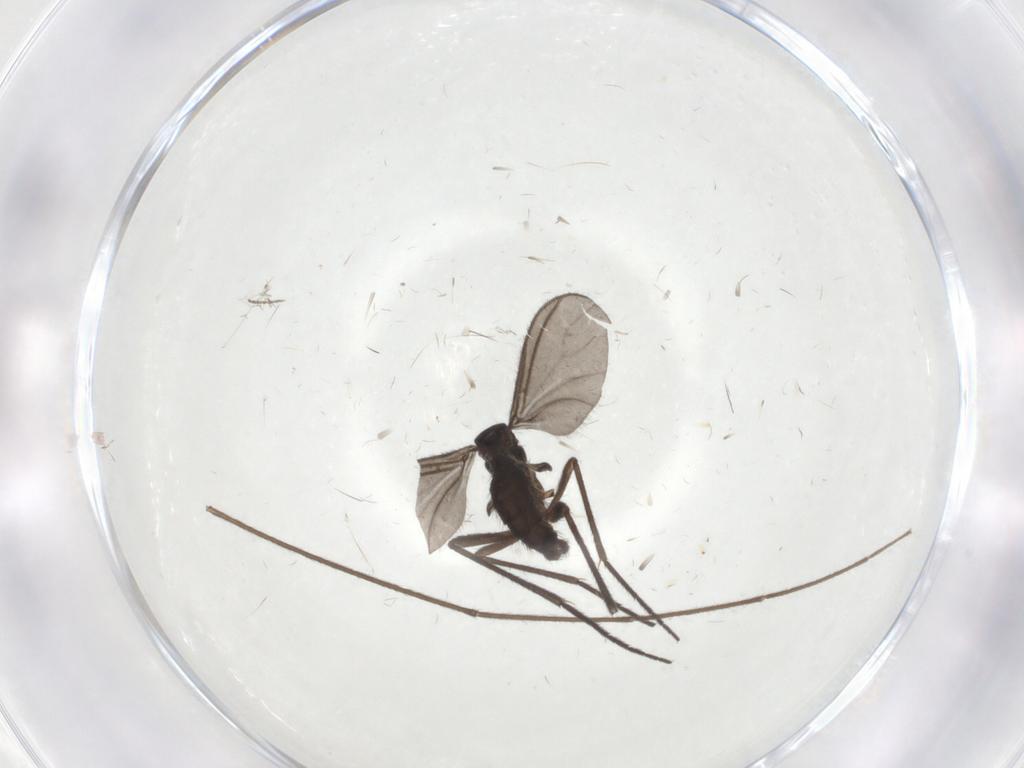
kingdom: Animalia
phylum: Arthropoda
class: Insecta
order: Diptera
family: Sciaridae
